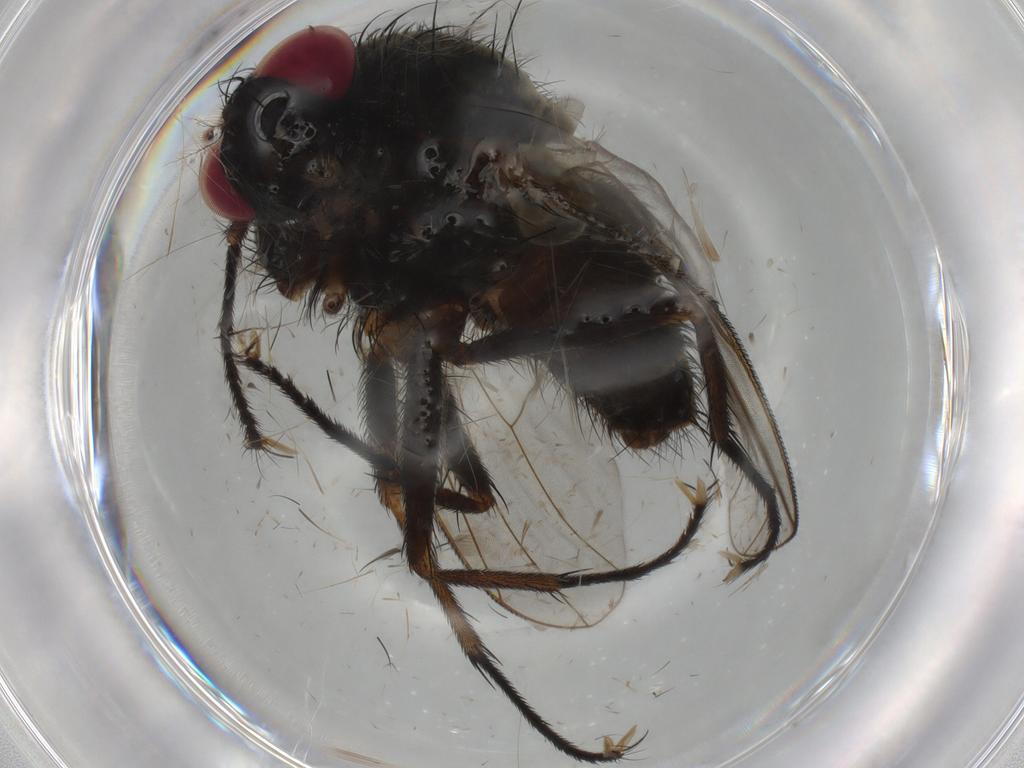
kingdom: Animalia
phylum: Arthropoda
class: Insecta
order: Diptera
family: Muscidae
